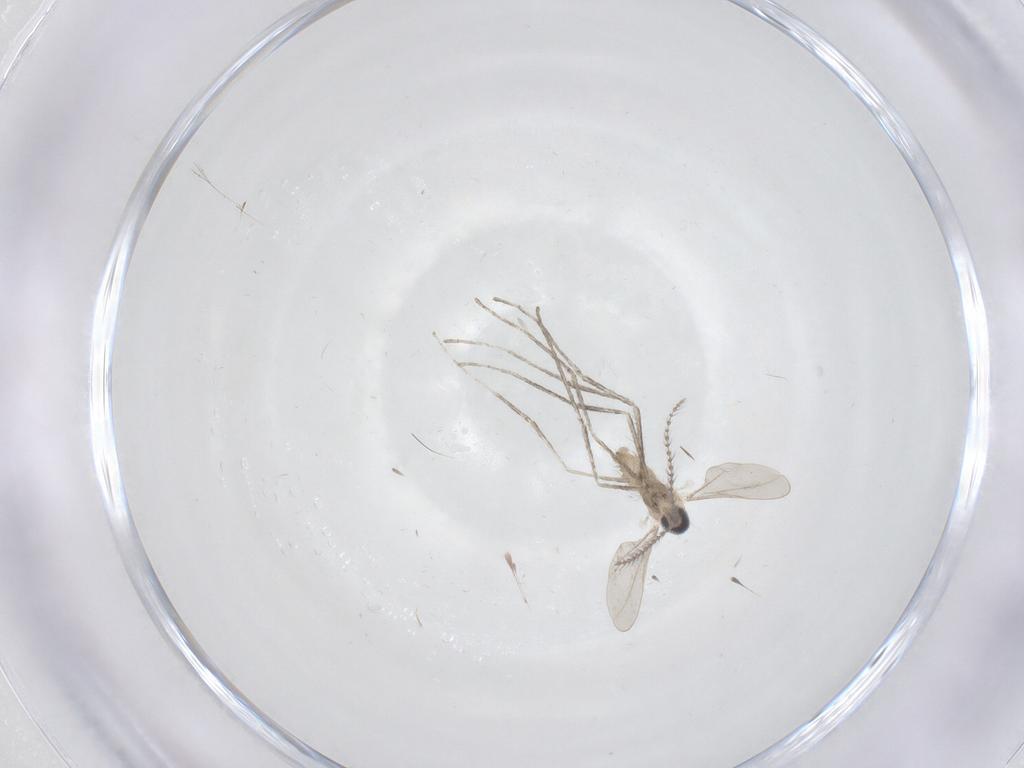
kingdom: Animalia
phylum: Arthropoda
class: Insecta
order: Diptera
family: Cecidomyiidae
